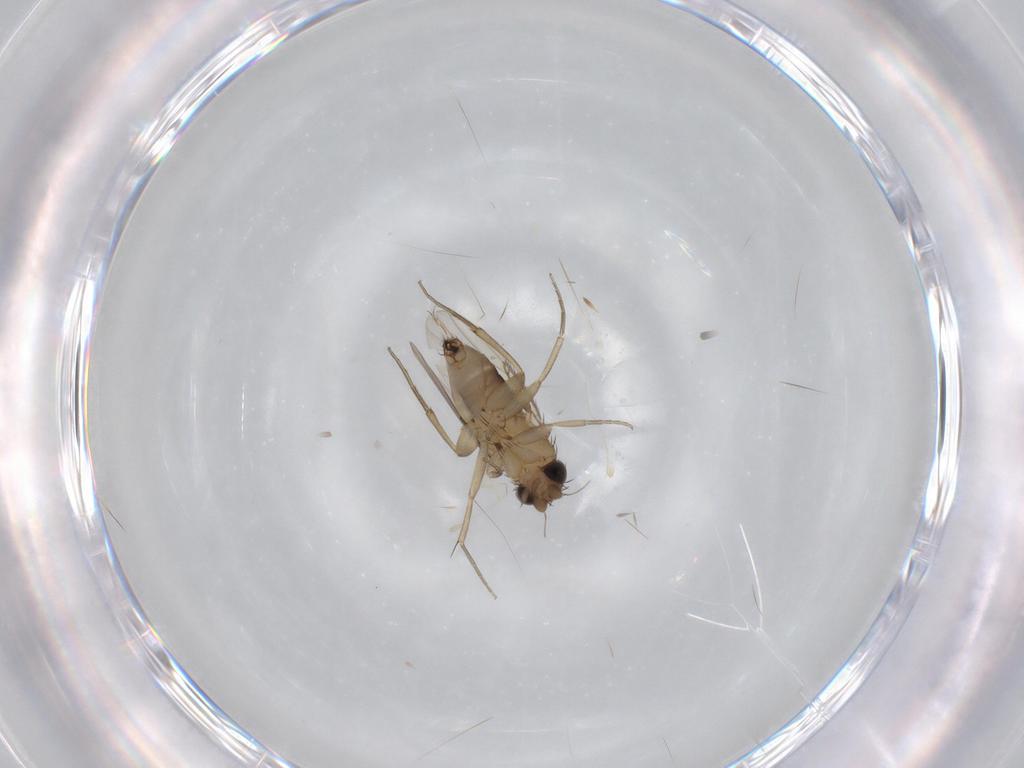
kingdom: Animalia
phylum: Arthropoda
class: Insecta
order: Diptera
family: Phoridae
